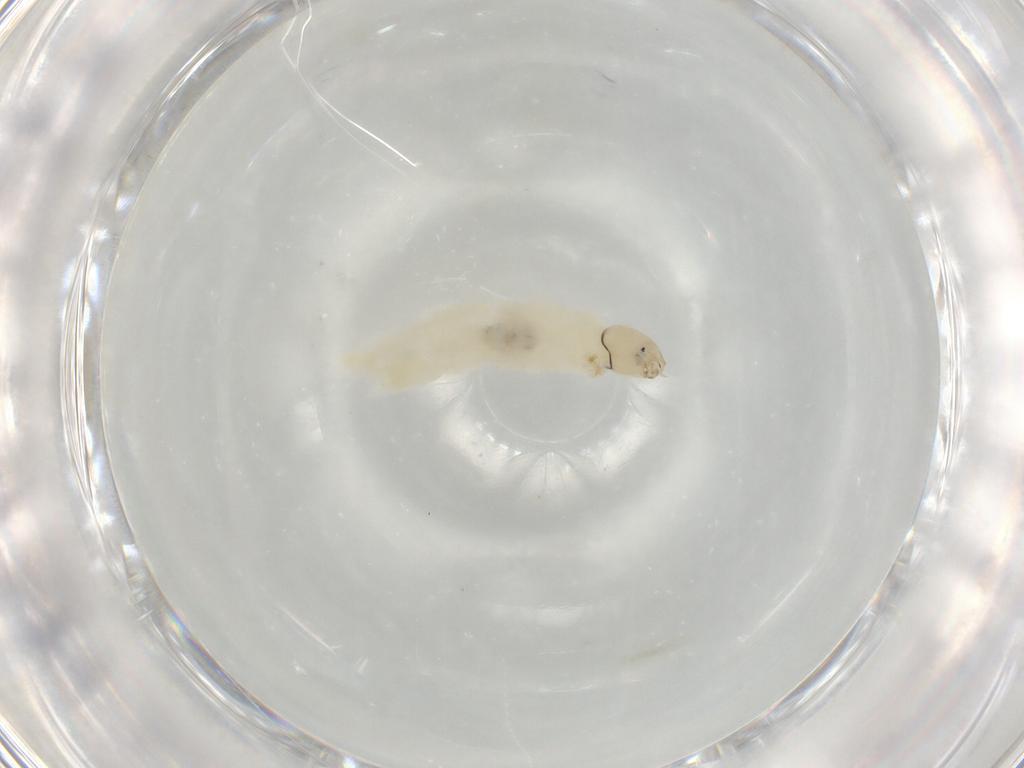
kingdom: Animalia
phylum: Arthropoda
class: Insecta
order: Diptera
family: Chironomidae
